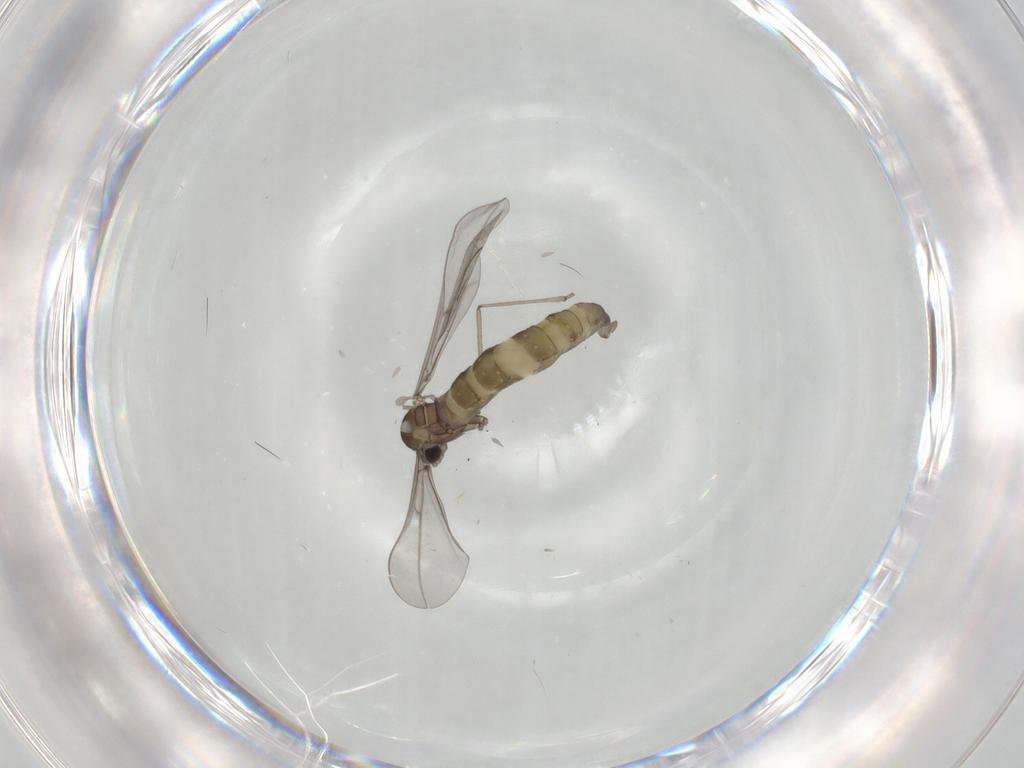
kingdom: Animalia
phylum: Arthropoda
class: Insecta
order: Diptera
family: Cecidomyiidae
